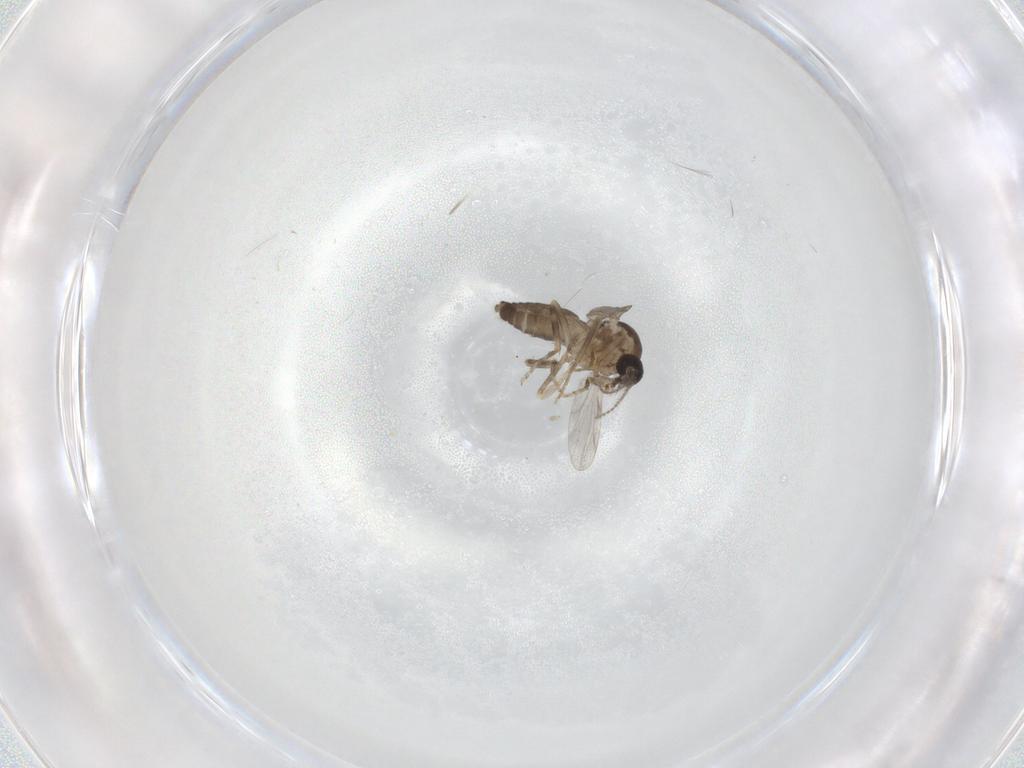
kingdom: Animalia
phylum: Arthropoda
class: Insecta
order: Diptera
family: Ceratopogonidae
